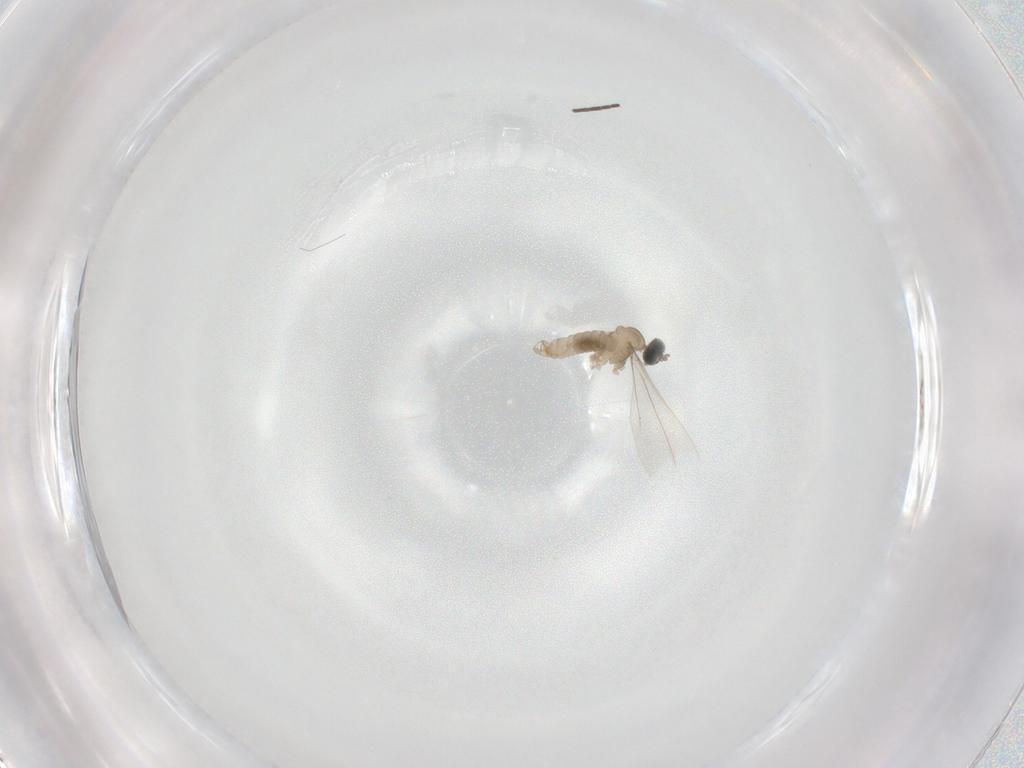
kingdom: Animalia
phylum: Arthropoda
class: Insecta
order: Diptera
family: Cecidomyiidae
